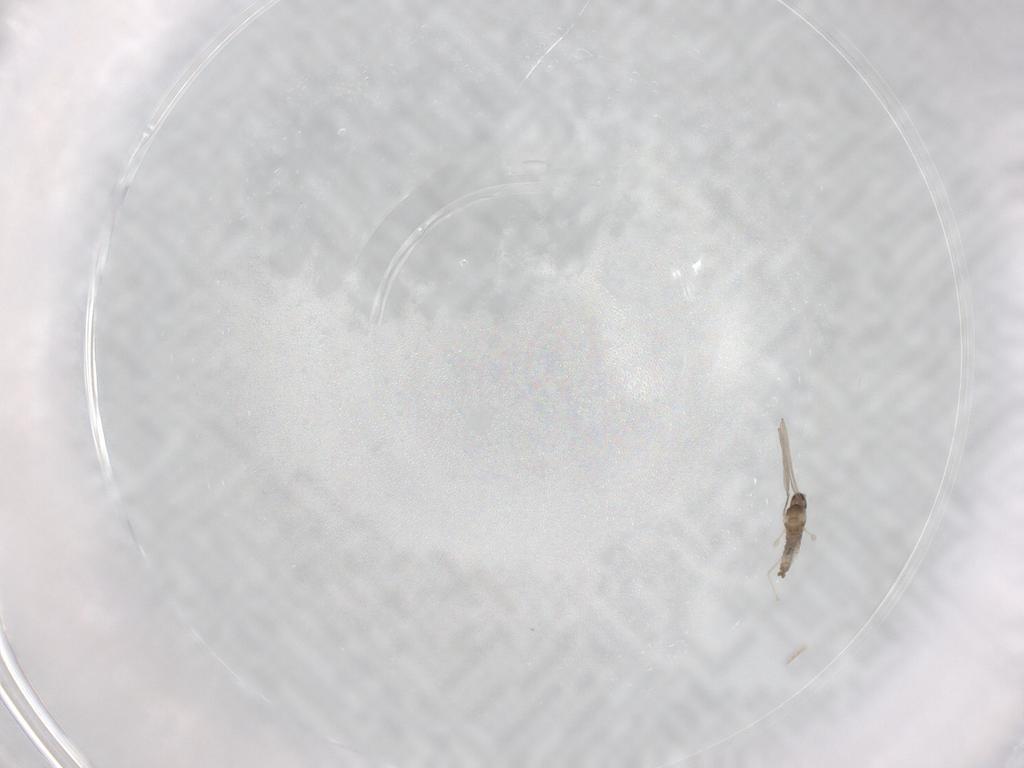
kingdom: Animalia
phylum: Arthropoda
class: Insecta
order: Diptera
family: Cecidomyiidae
